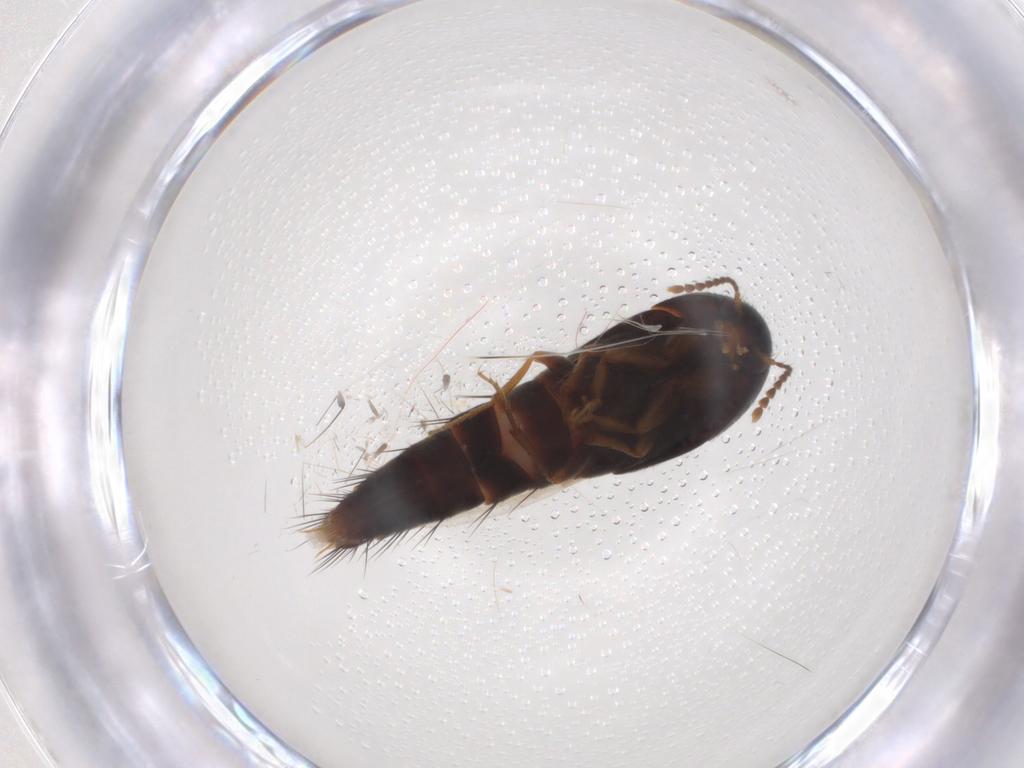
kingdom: Animalia
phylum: Arthropoda
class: Insecta
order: Coleoptera
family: Staphylinidae
